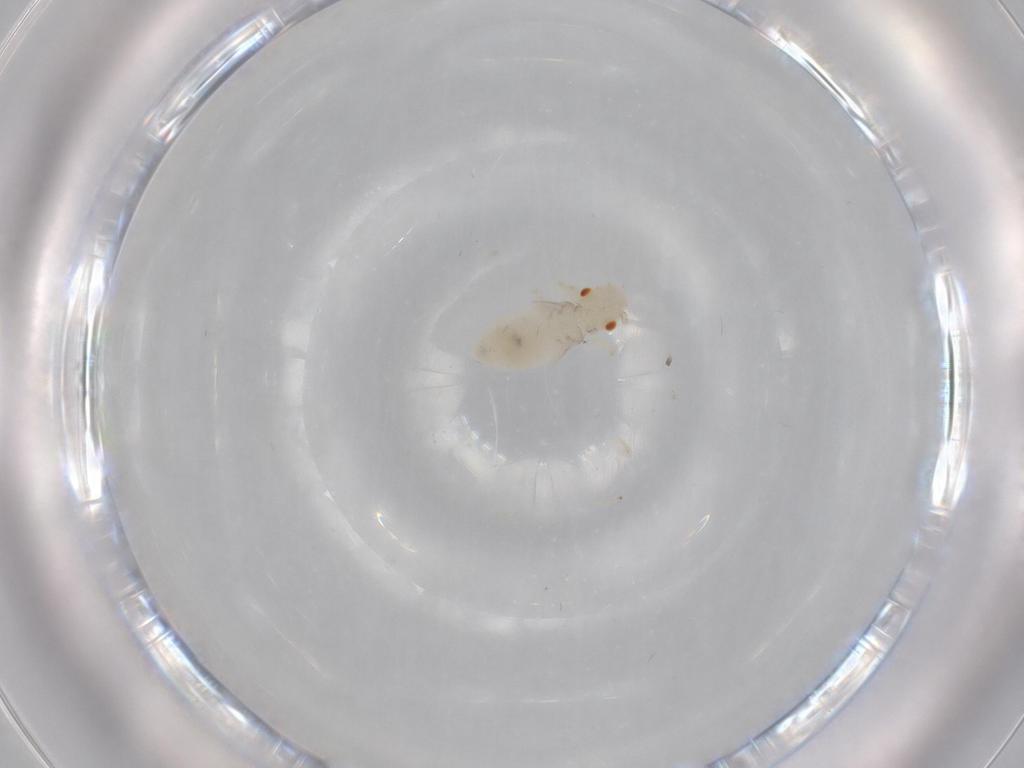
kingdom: Animalia
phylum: Arthropoda
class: Insecta
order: Psocodea
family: Caeciliusidae
